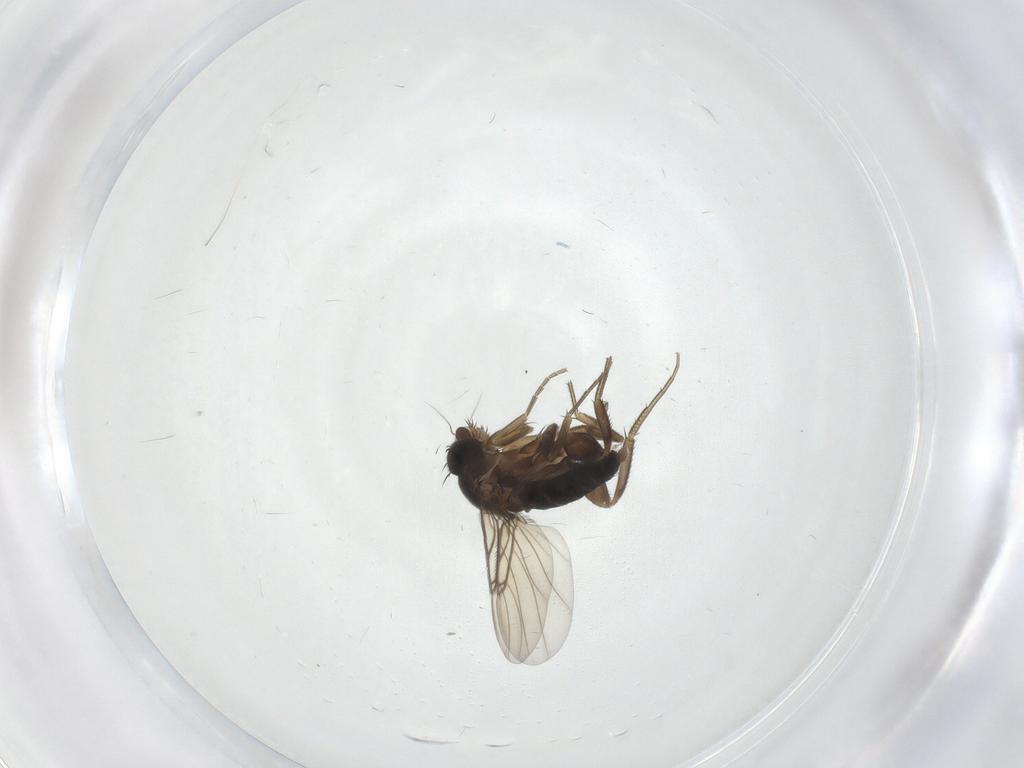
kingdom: Animalia
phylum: Arthropoda
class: Insecta
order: Diptera
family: Phoridae
